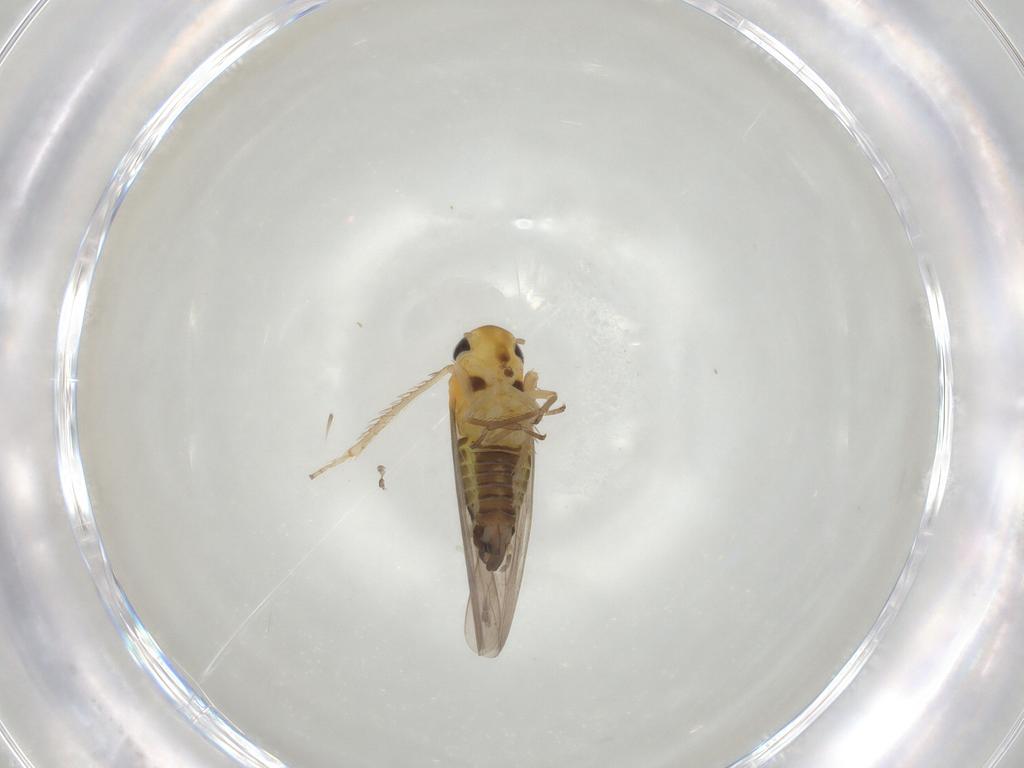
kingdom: Animalia
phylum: Arthropoda
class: Insecta
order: Hemiptera
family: Cicadellidae
